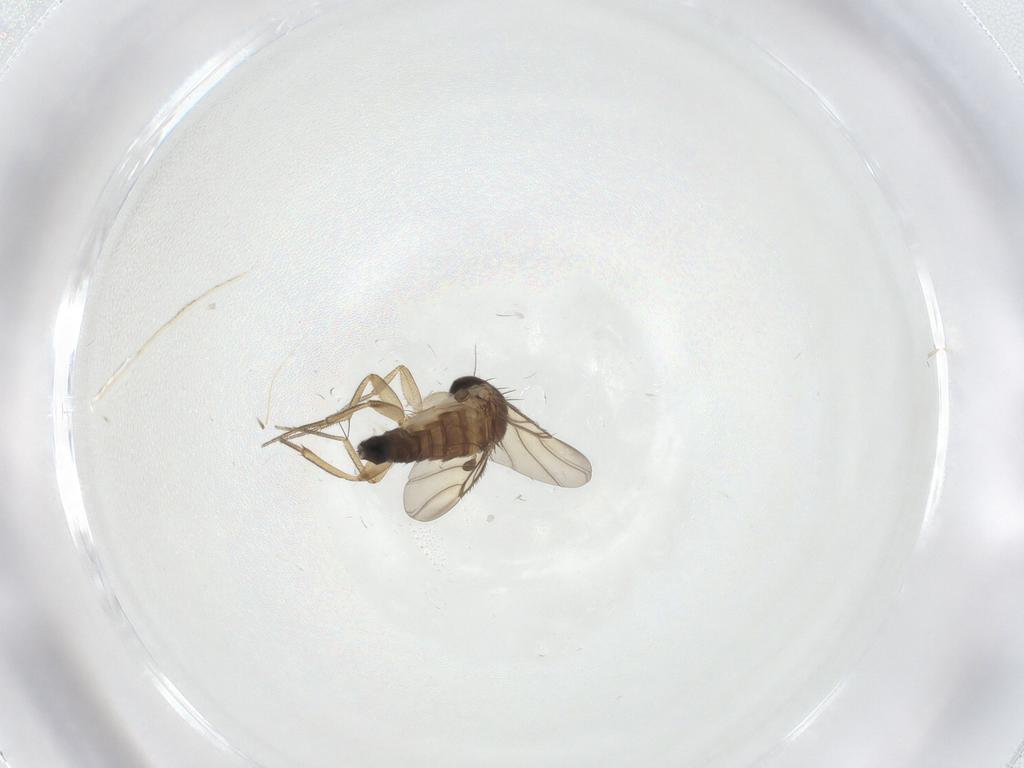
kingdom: Animalia
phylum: Arthropoda
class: Insecta
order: Diptera
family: Phoridae
